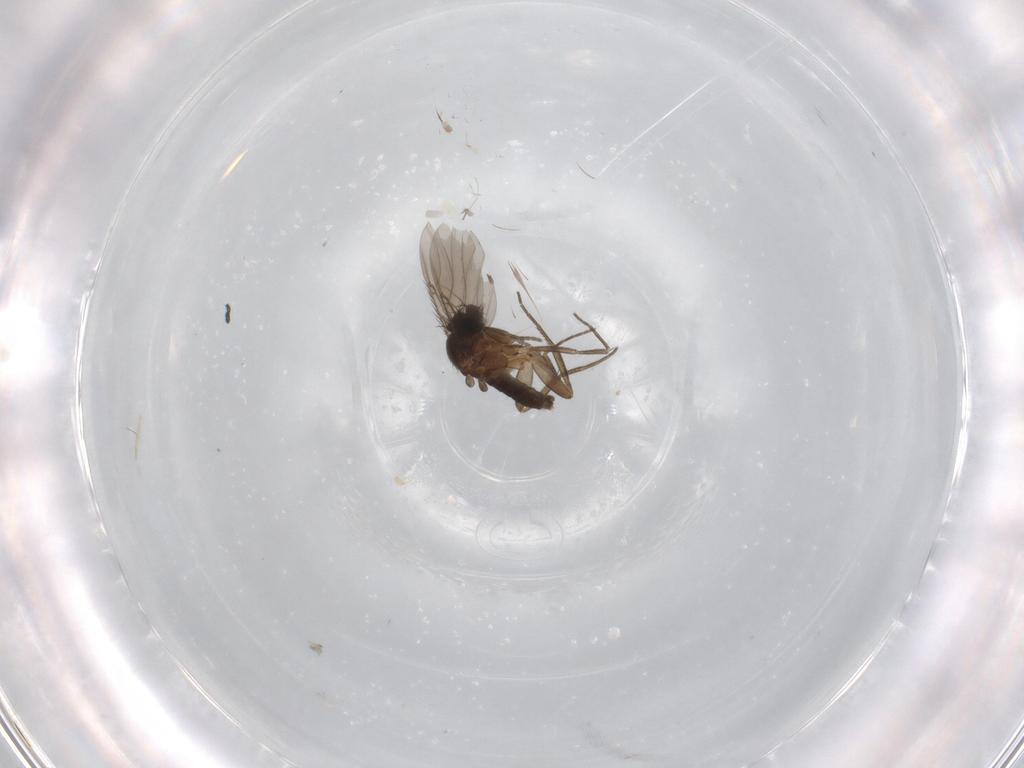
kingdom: Animalia
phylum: Arthropoda
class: Insecta
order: Diptera
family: Phoridae
